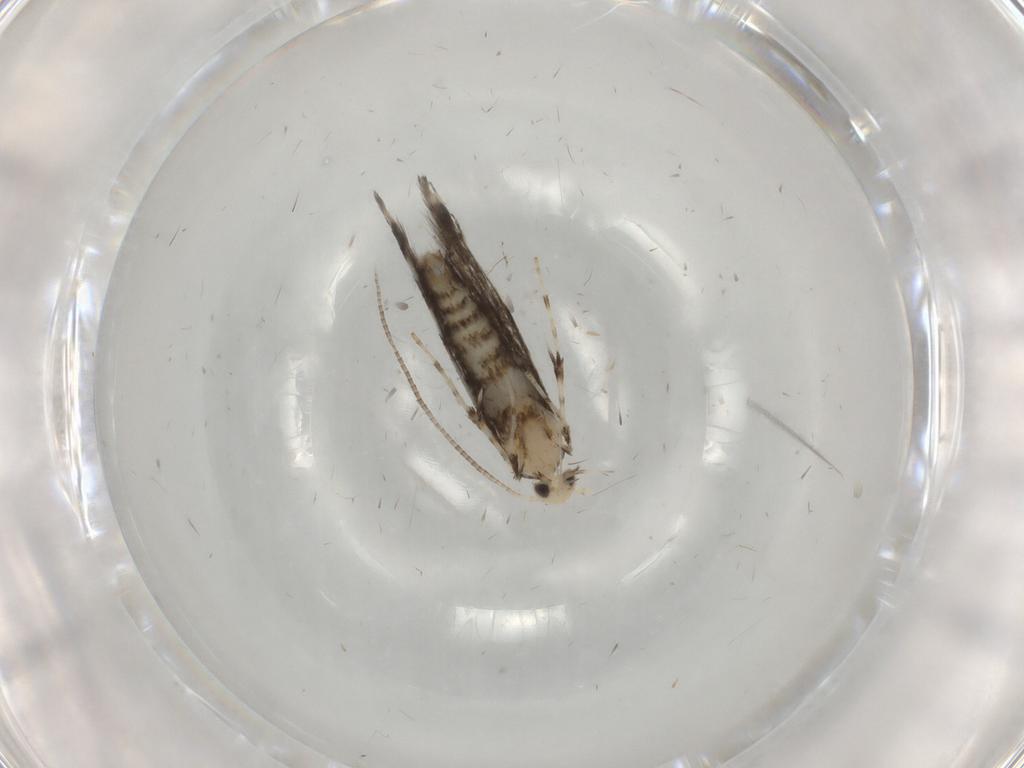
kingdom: Animalia
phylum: Arthropoda
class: Insecta
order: Lepidoptera
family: Gracillariidae
